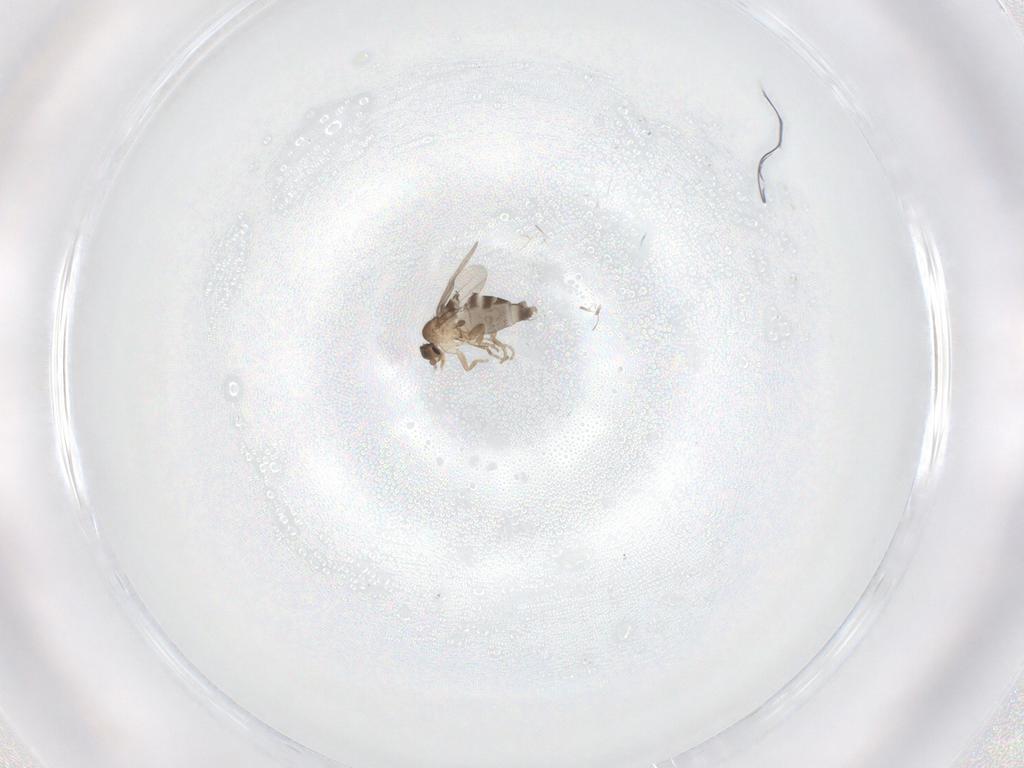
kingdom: Animalia
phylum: Arthropoda
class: Insecta
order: Diptera
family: Phoridae
